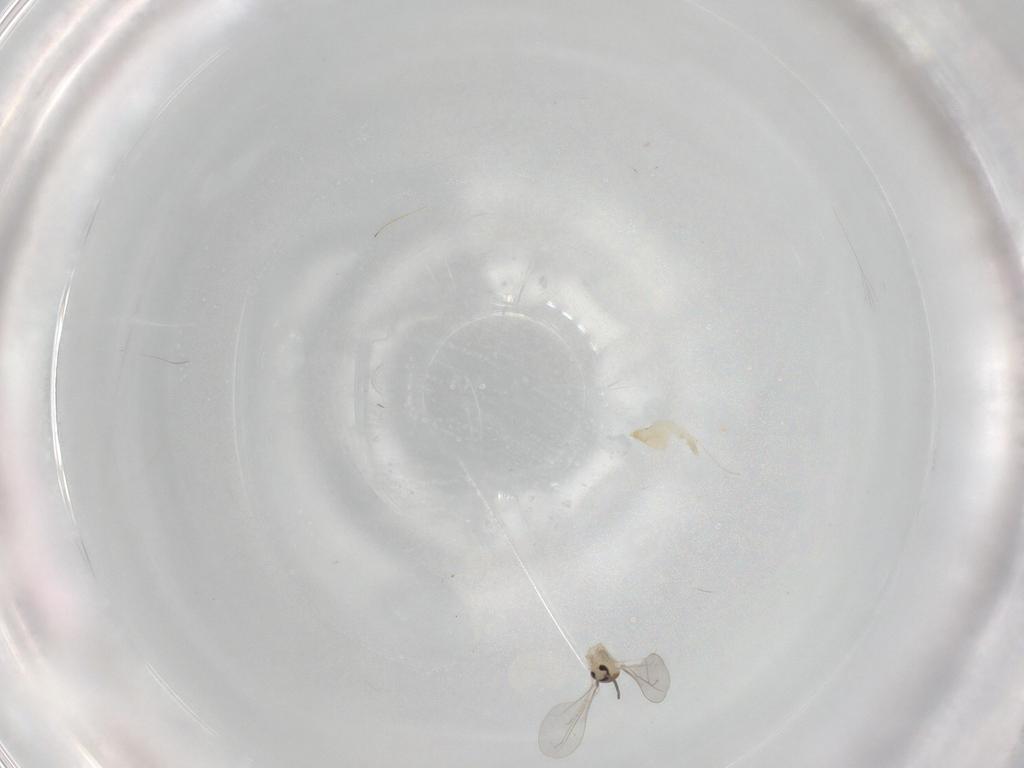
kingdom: Animalia
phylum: Arthropoda
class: Insecta
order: Diptera
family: Cecidomyiidae
